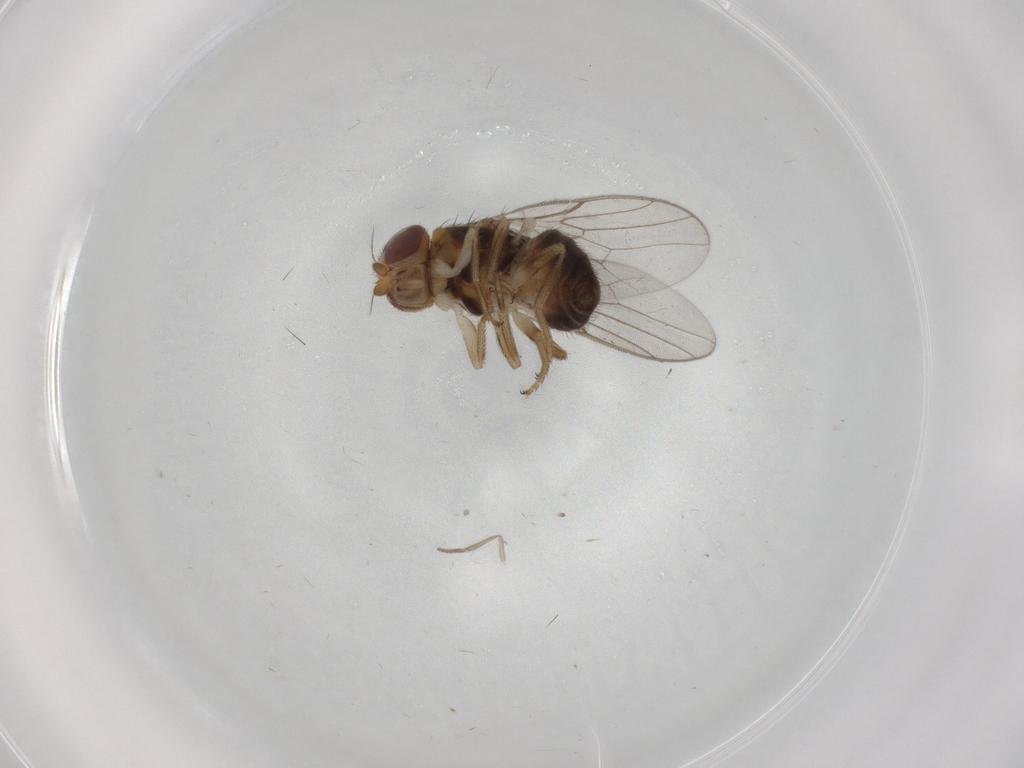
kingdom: Animalia
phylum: Arthropoda
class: Insecta
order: Diptera
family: Chloropidae
